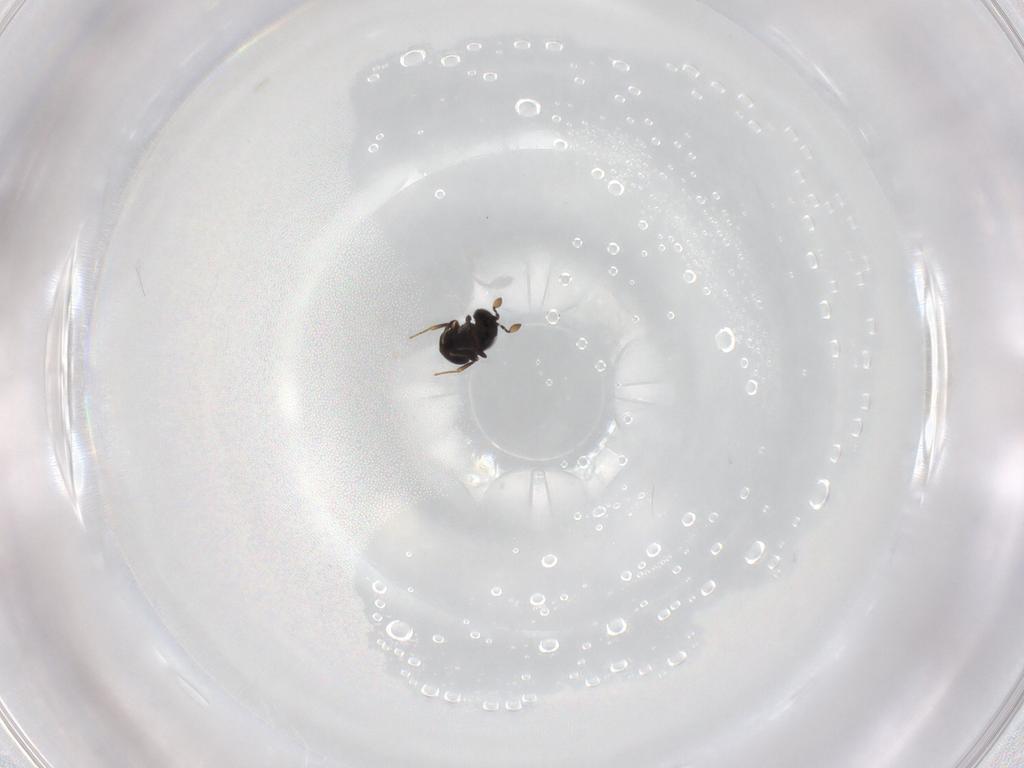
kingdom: Animalia
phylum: Arthropoda
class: Insecta
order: Hymenoptera
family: Scelionidae
